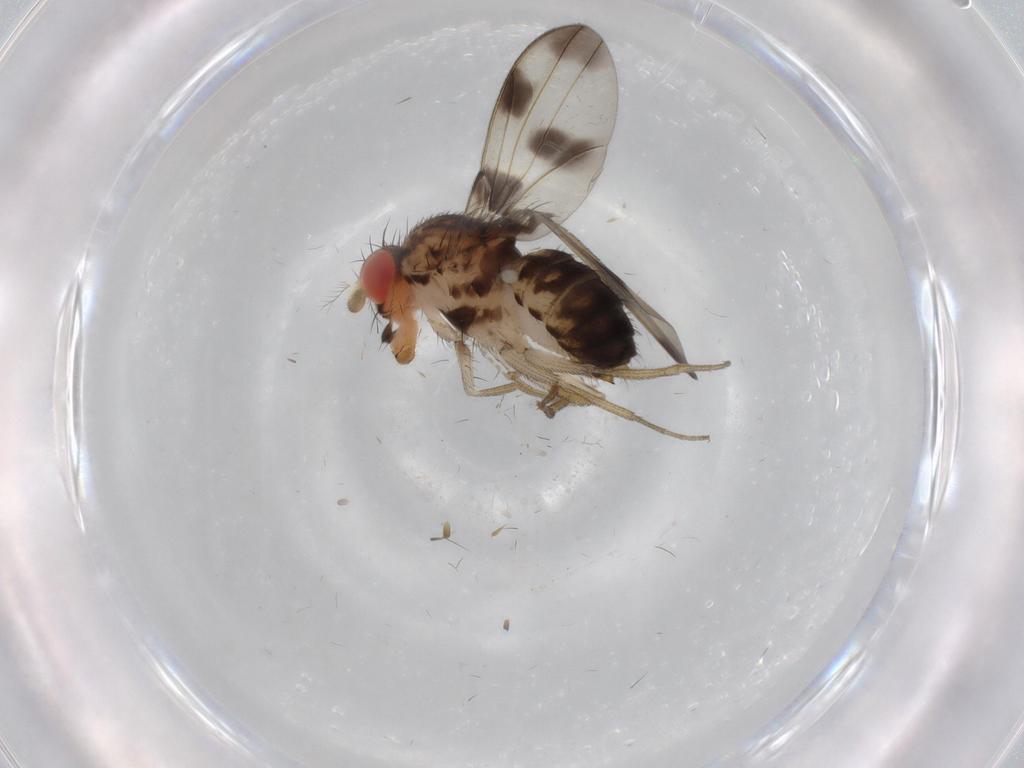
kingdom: Animalia
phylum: Arthropoda
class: Insecta
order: Diptera
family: Drosophilidae
